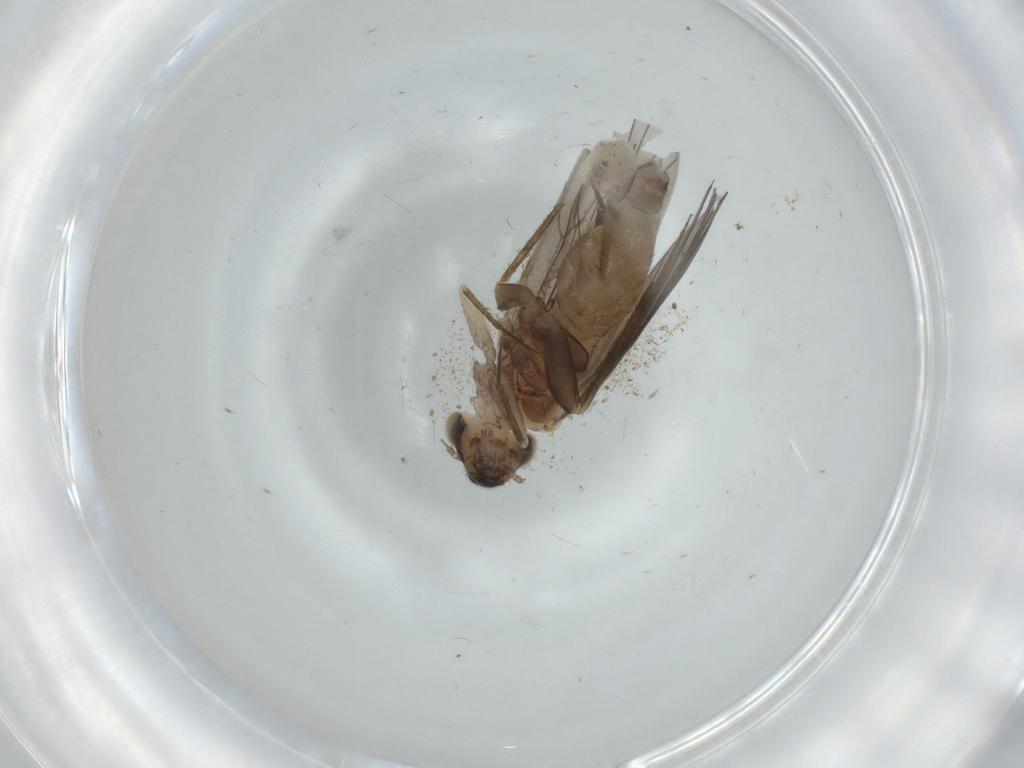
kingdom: Animalia
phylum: Arthropoda
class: Insecta
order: Psocodea
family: Lepidopsocidae
